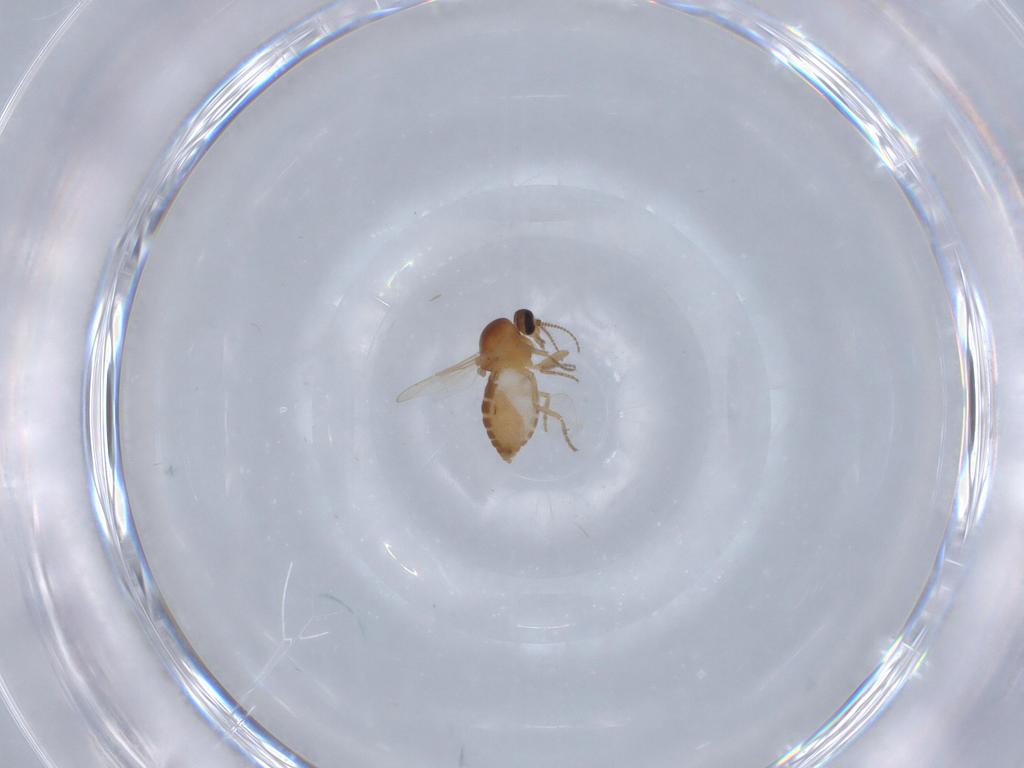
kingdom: Animalia
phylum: Arthropoda
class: Insecta
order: Diptera
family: Ceratopogonidae
